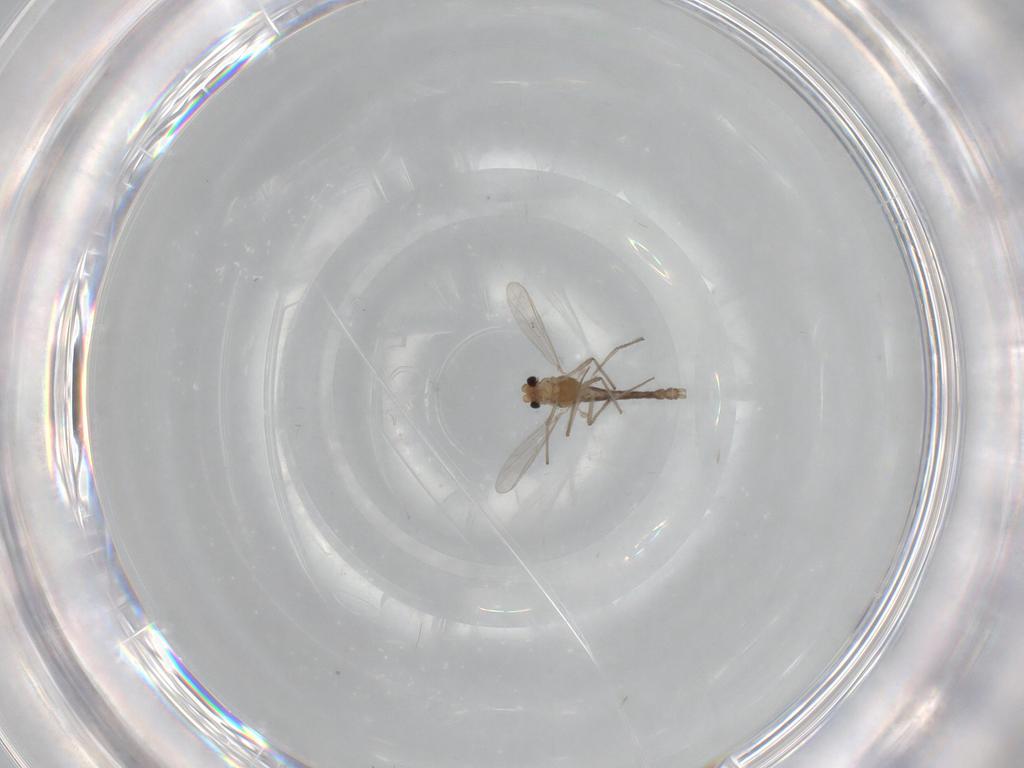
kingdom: Animalia
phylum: Arthropoda
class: Insecta
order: Diptera
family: Chironomidae
